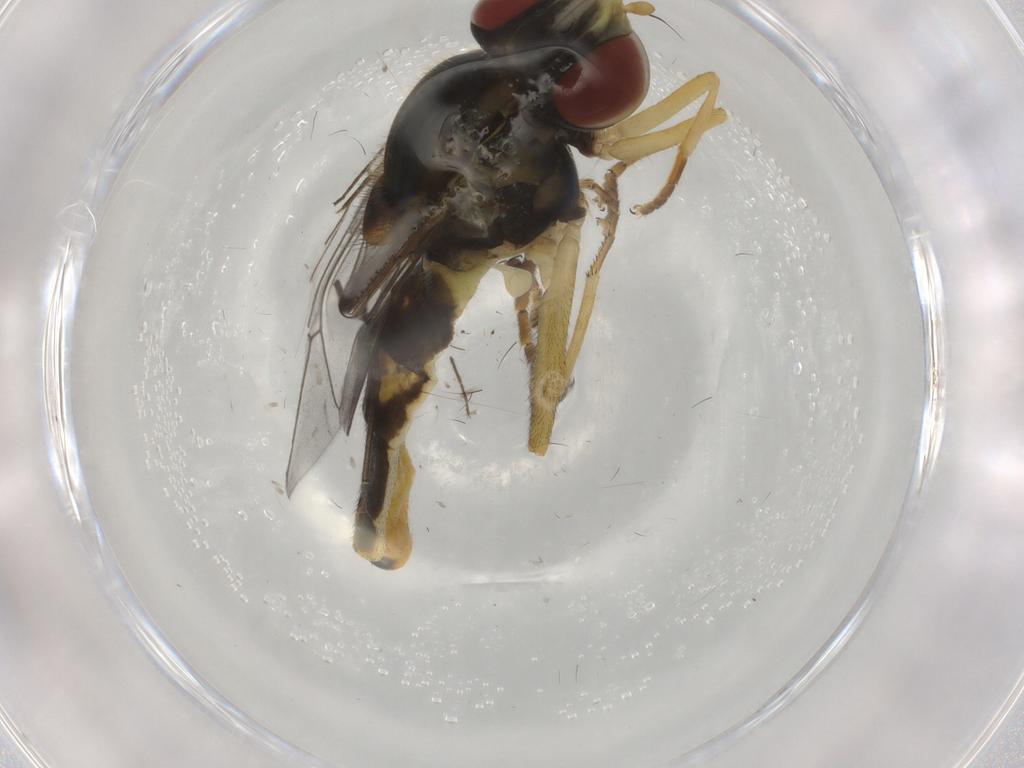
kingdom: Animalia
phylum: Arthropoda
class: Insecta
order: Diptera
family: Syrphidae
